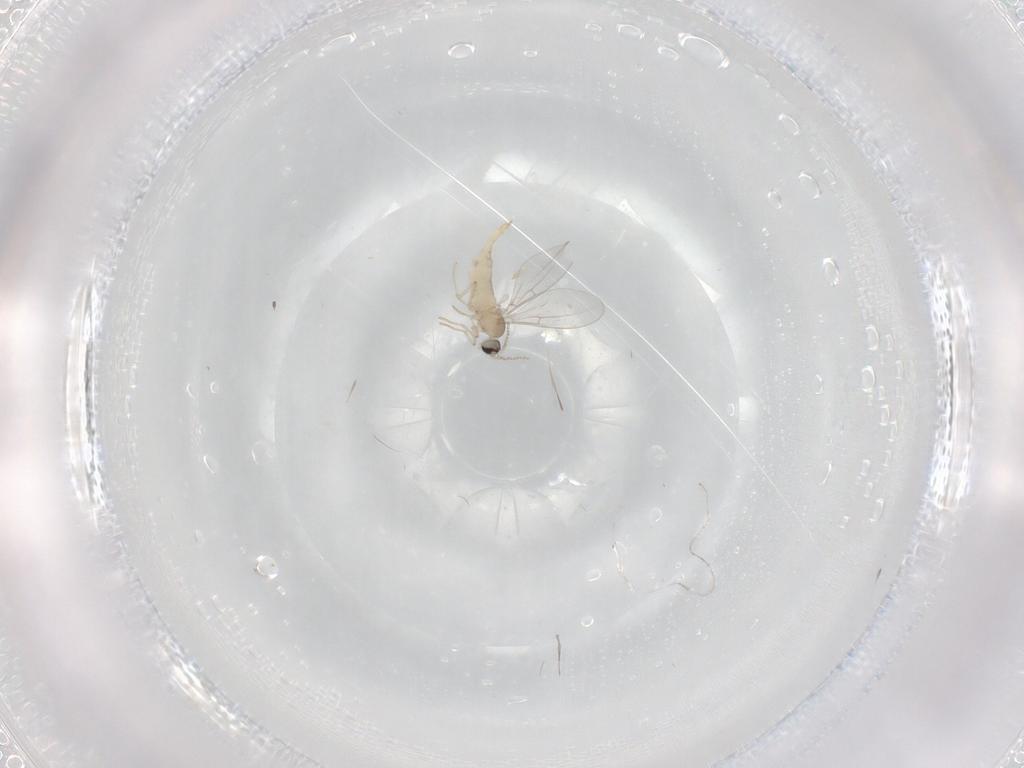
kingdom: Animalia
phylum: Arthropoda
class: Insecta
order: Diptera
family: Cecidomyiidae
